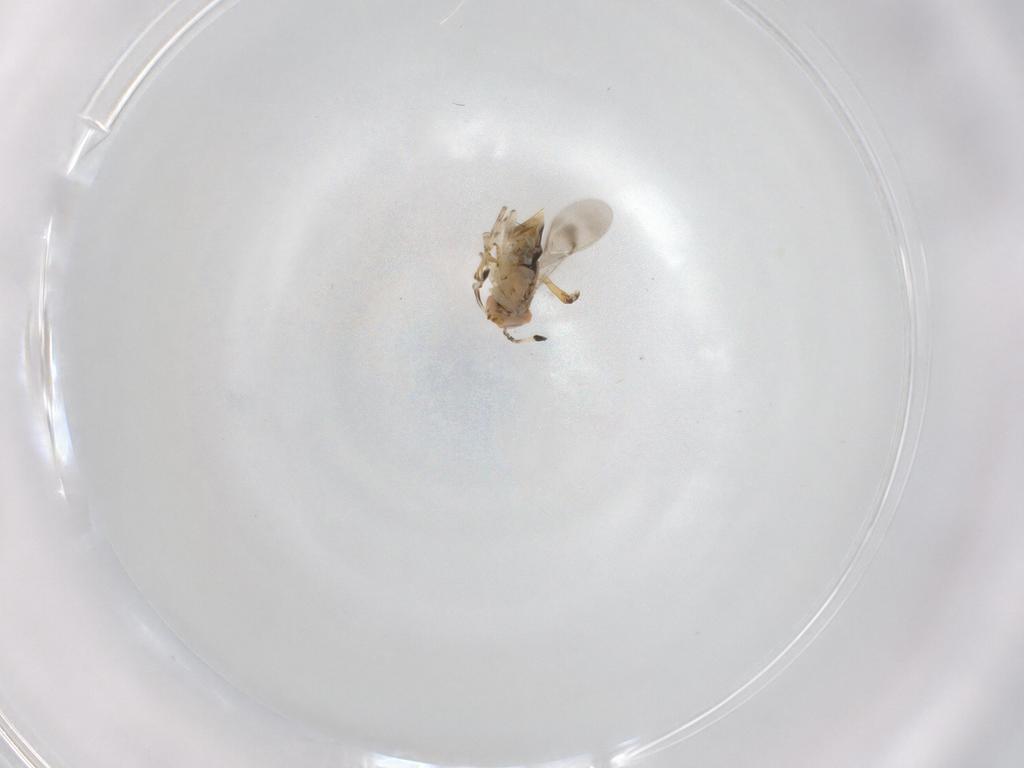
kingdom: Animalia
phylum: Arthropoda
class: Insecta
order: Hymenoptera
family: Encyrtidae
